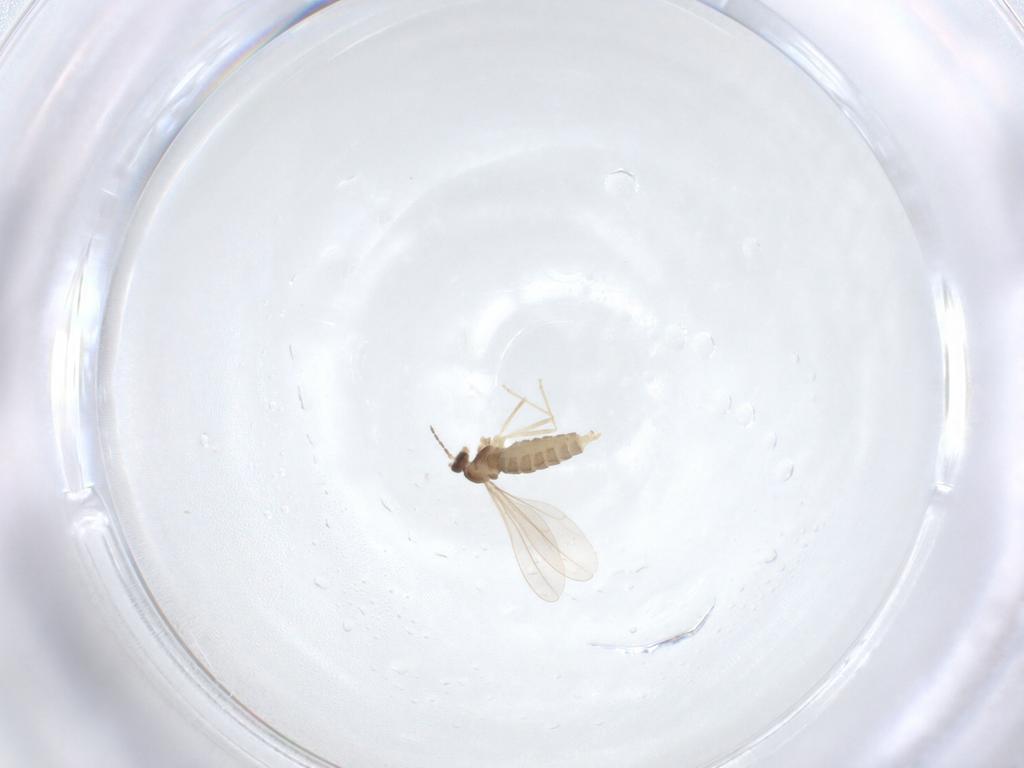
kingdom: Animalia
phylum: Arthropoda
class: Insecta
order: Diptera
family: Cecidomyiidae
